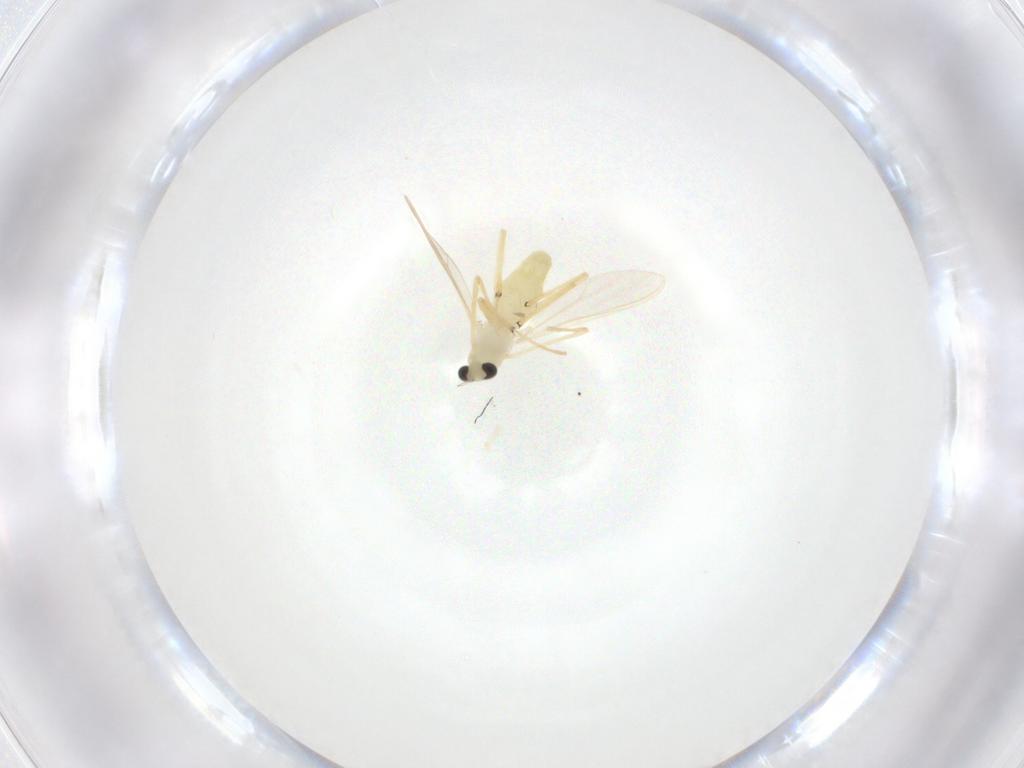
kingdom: Animalia
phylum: Arthropoda
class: Insecta
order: Diptera
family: Chironomidae
